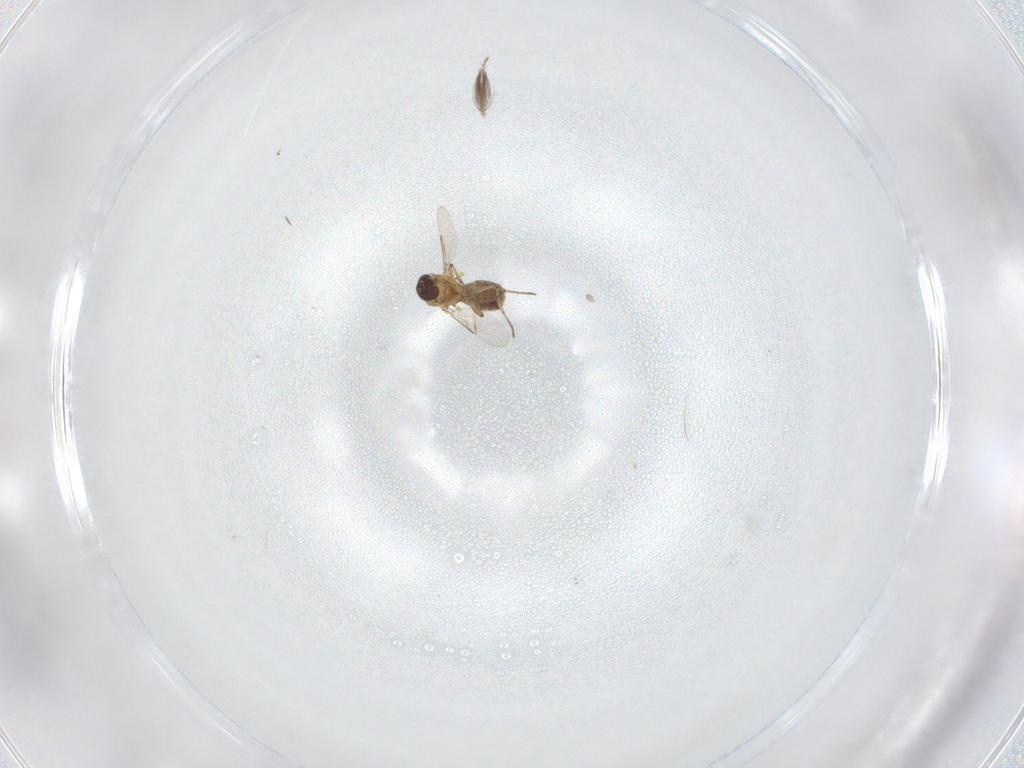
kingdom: Animalia
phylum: Arthropoda
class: Insecta
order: Diptera
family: Ceratopogonidae
